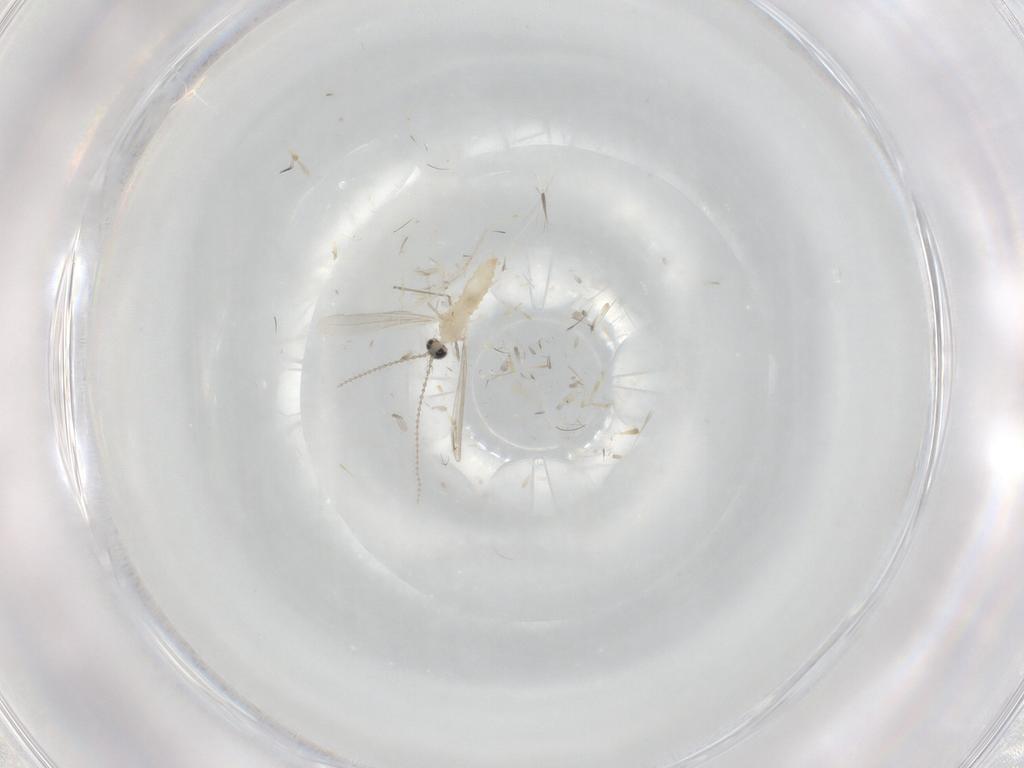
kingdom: Animalia
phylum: Arthropoda
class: Insecta
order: Diptera
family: Cecidomyiidae
